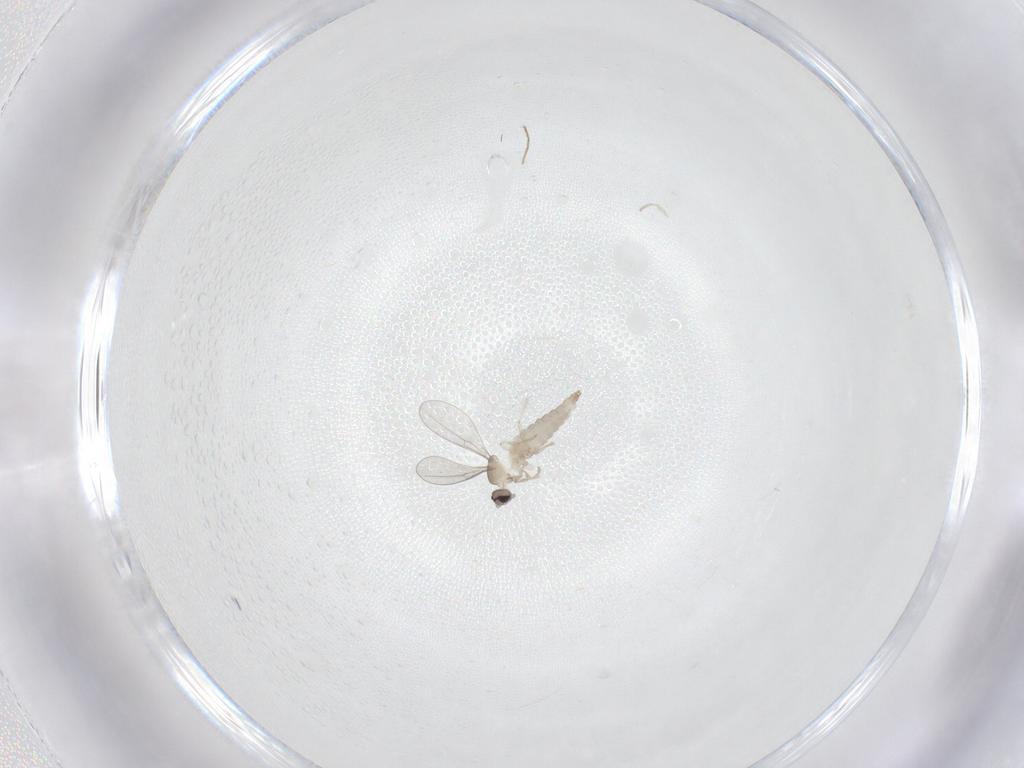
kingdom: Animalia
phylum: Arthropoda
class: Insecta
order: Diptera
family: Cecidomyiidae
